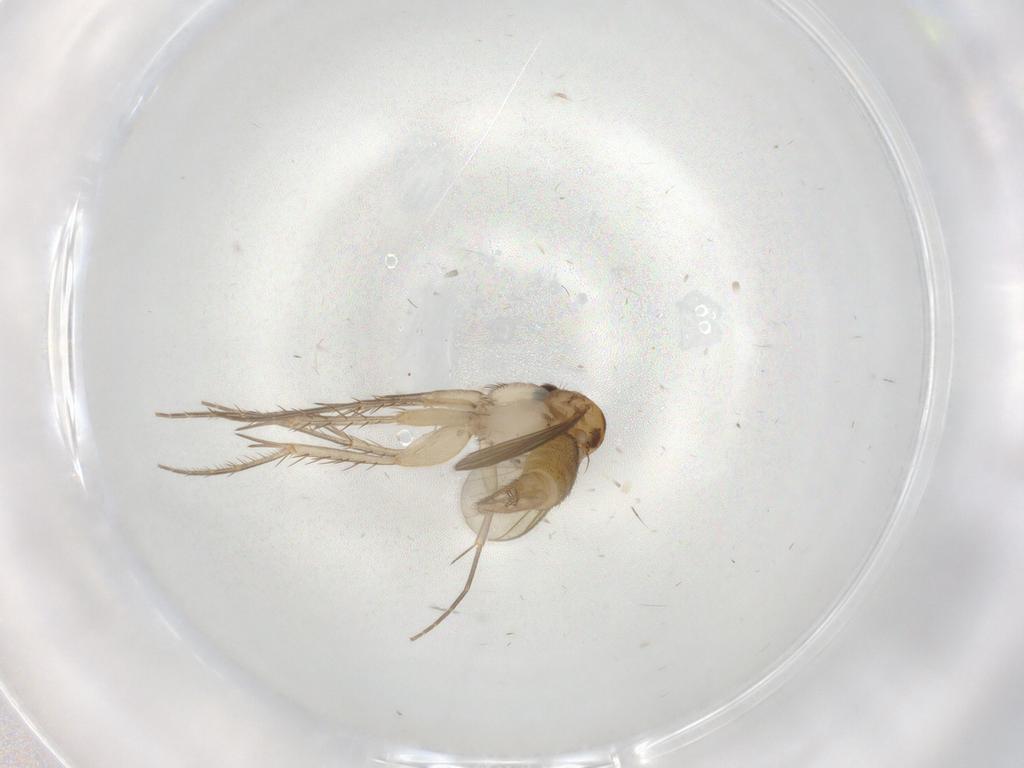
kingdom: Animalia
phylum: Arthropoda
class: Insecta
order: Diptera
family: Mycetophilidae
